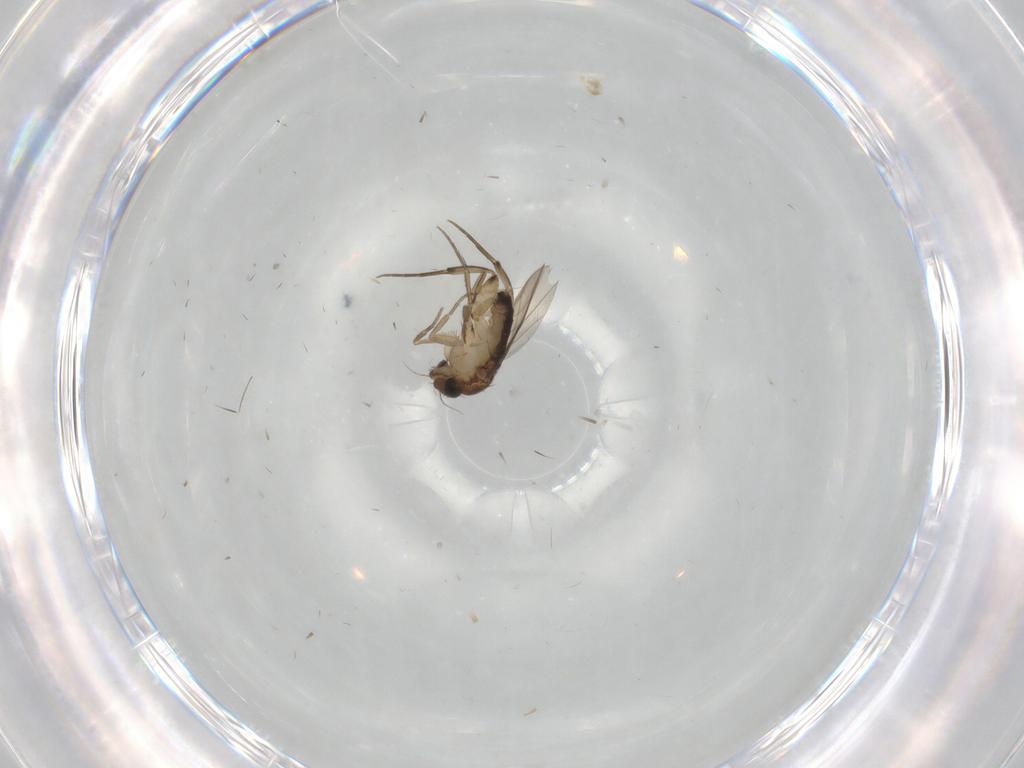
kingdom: Animalia
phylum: Arthropoda
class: Insecta
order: Diptera
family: Phoridae
